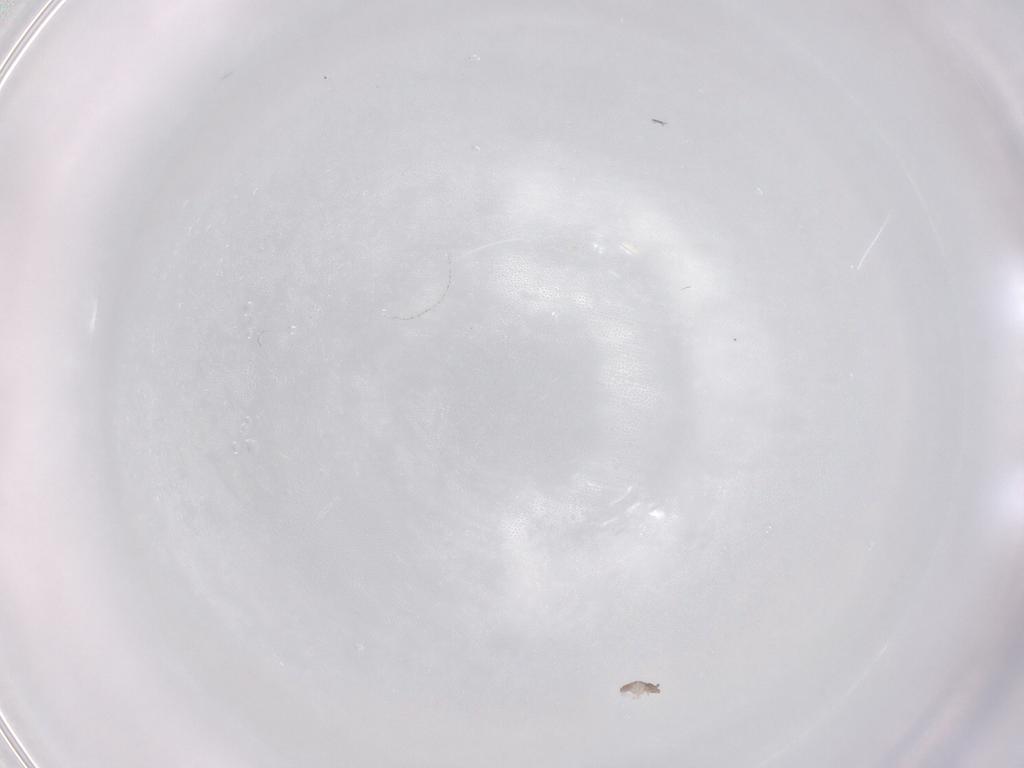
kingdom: Animalia
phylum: Arthropoda
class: Collembola
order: Poduromorpha
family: Hypogastruridae
